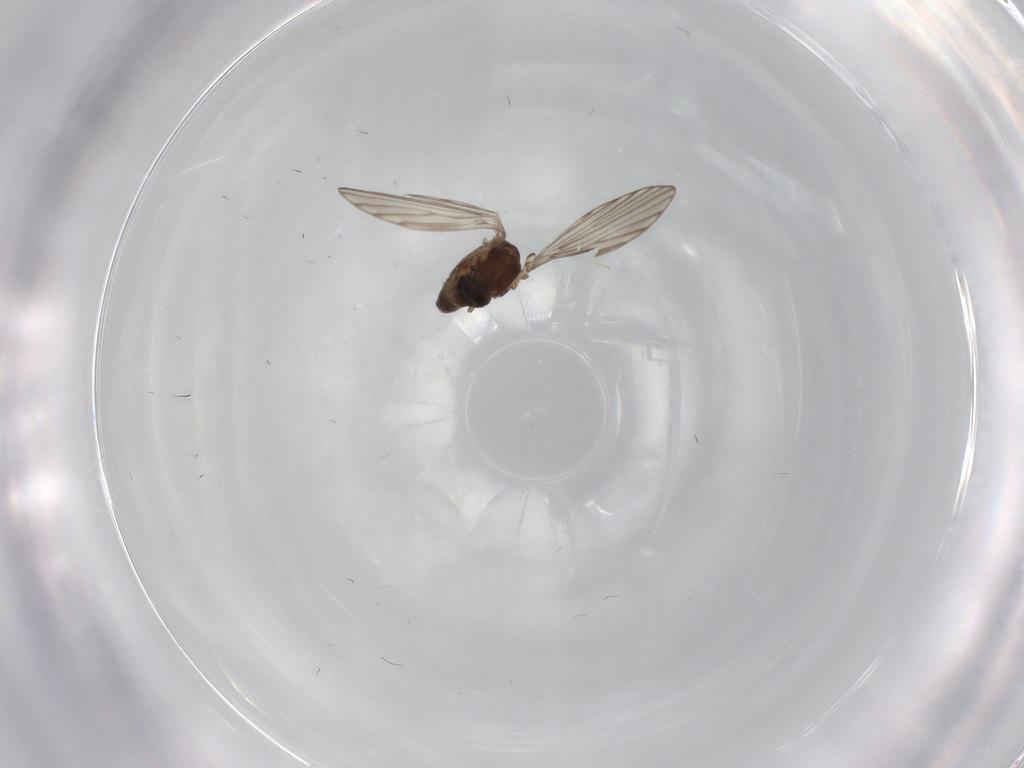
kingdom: Animalia
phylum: Arthropoda
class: Insecta
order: Diptera
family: Psychodidae
